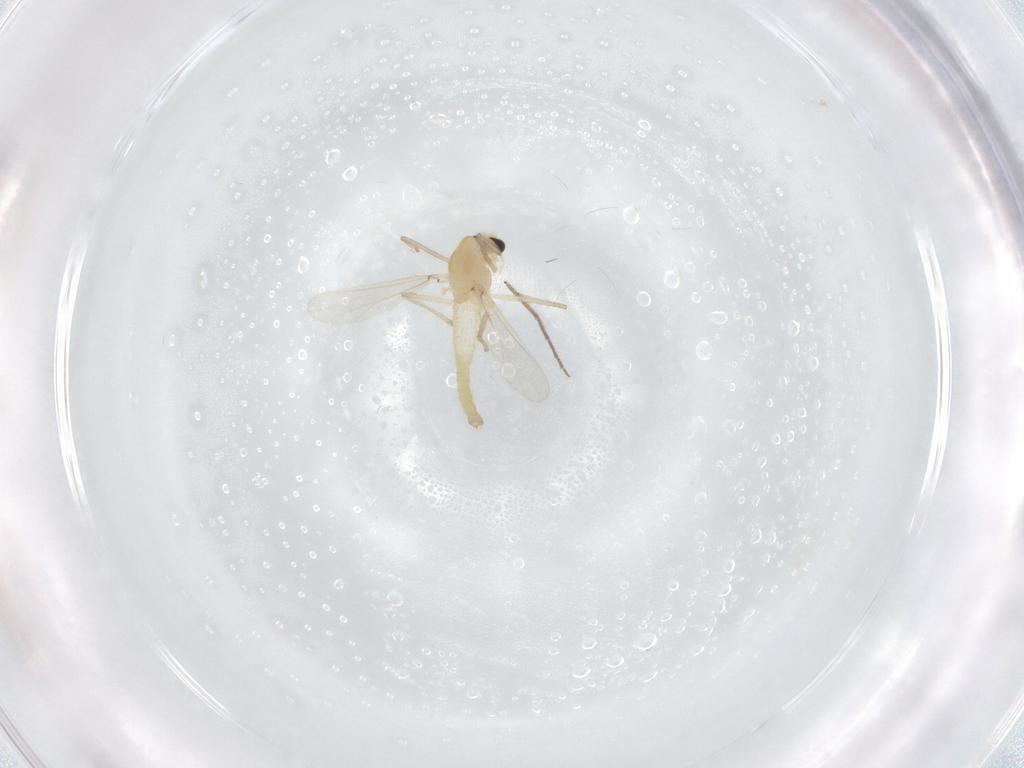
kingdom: Animalia
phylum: Arthropoda
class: Insecta
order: Diptera
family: Chironomidae
